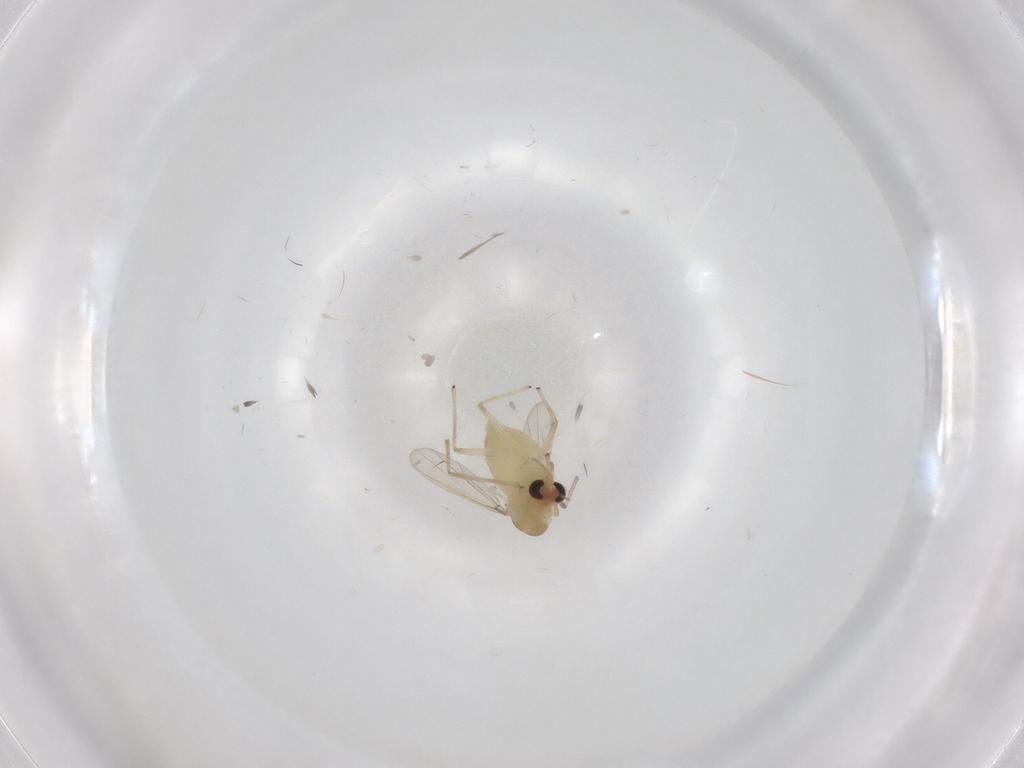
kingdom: Animalia
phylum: Arthropoda
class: Insecta
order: Diptera
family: Chironomidae
